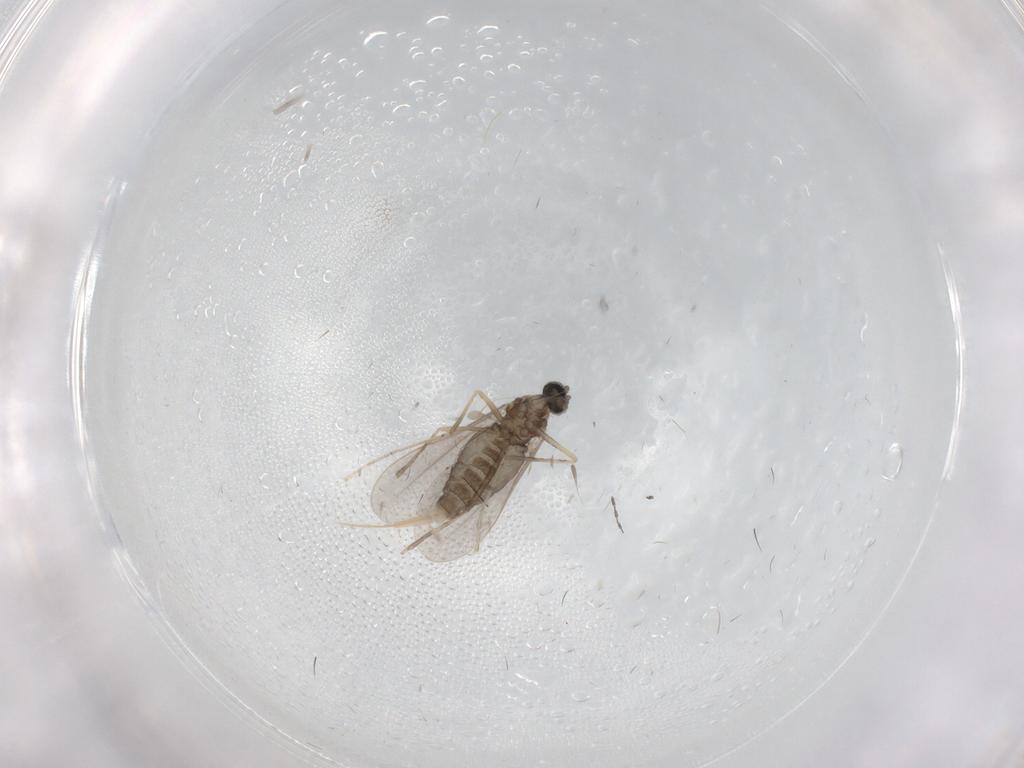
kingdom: Animalia
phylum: Arthropoda
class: Insecta
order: Diptera
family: Cecidomyiidae
